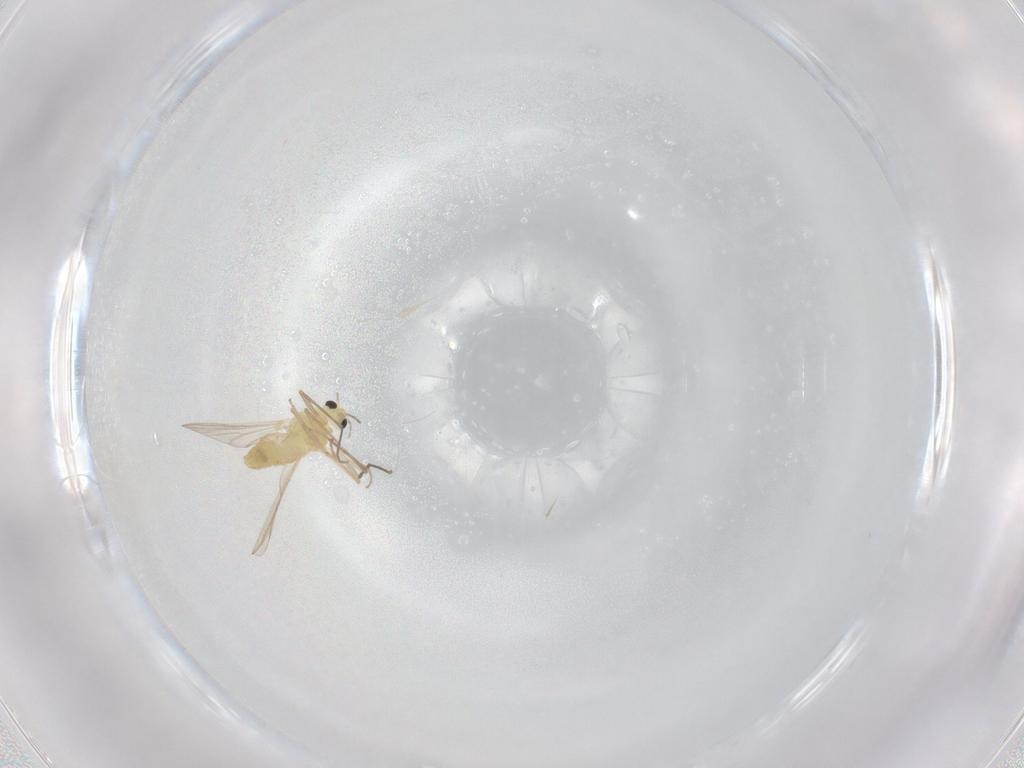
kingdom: Animalia
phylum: Arthropoda
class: Insecta
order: Diptera
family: Chironomidae
